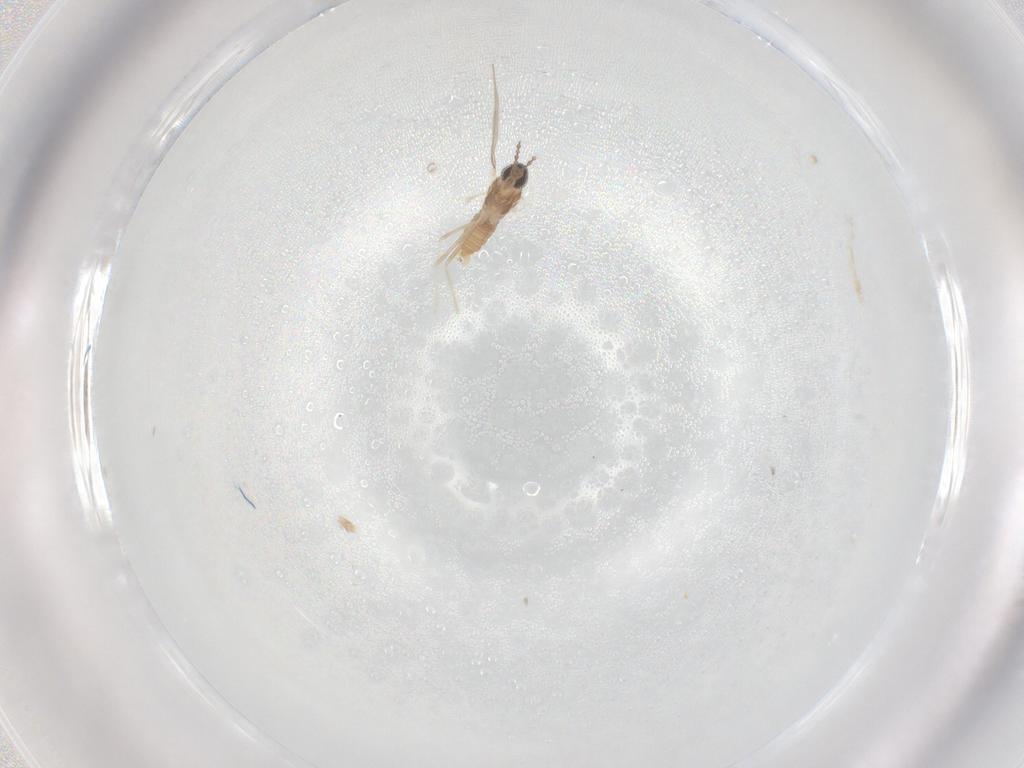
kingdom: Animalia
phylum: Arthropoda
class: Insecta
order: Diptera
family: Cecidomyiidae
